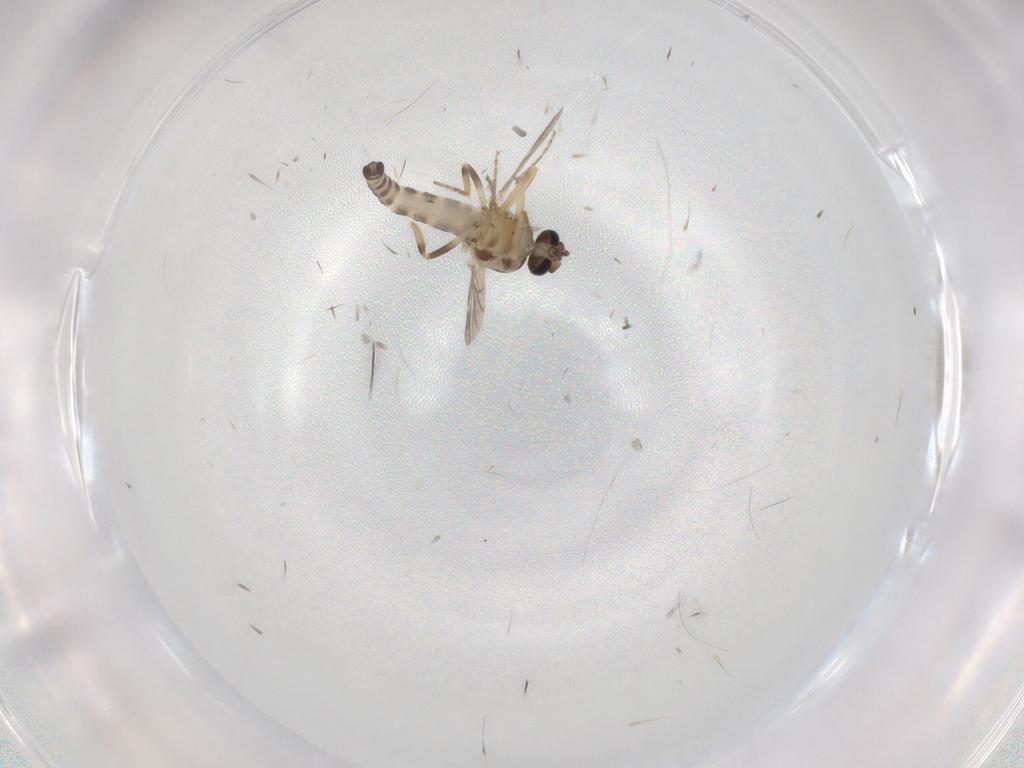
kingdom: Animalia
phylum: Arthropoda
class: Insecta
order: Diptera
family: Ceratopogonidae
